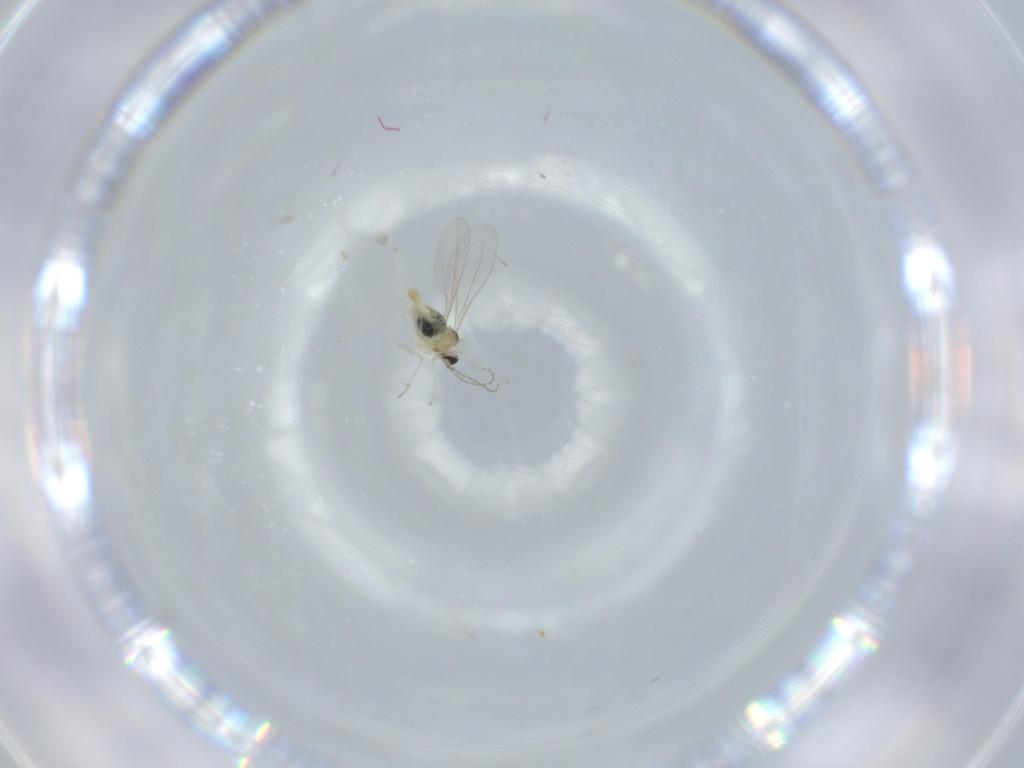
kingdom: Animalia
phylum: Arthropoda
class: Insecta
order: Diptera
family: Cecidomyiidae
